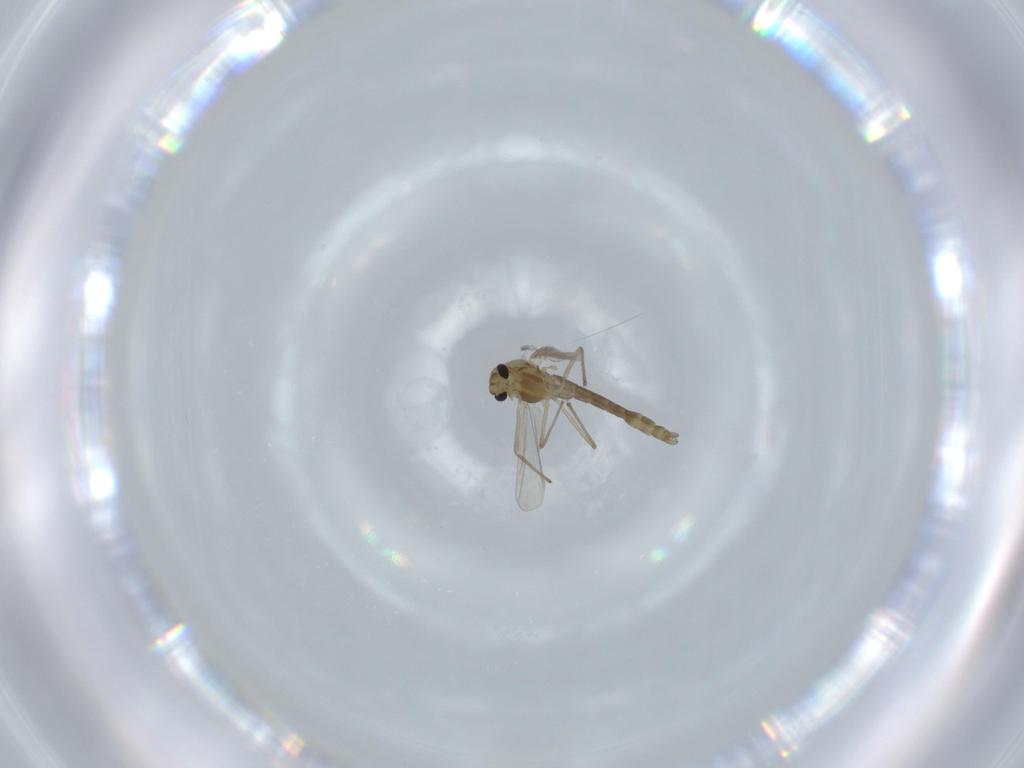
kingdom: Animalia
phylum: Arthropoda
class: Insecta
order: Diptera
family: Chironomidae
